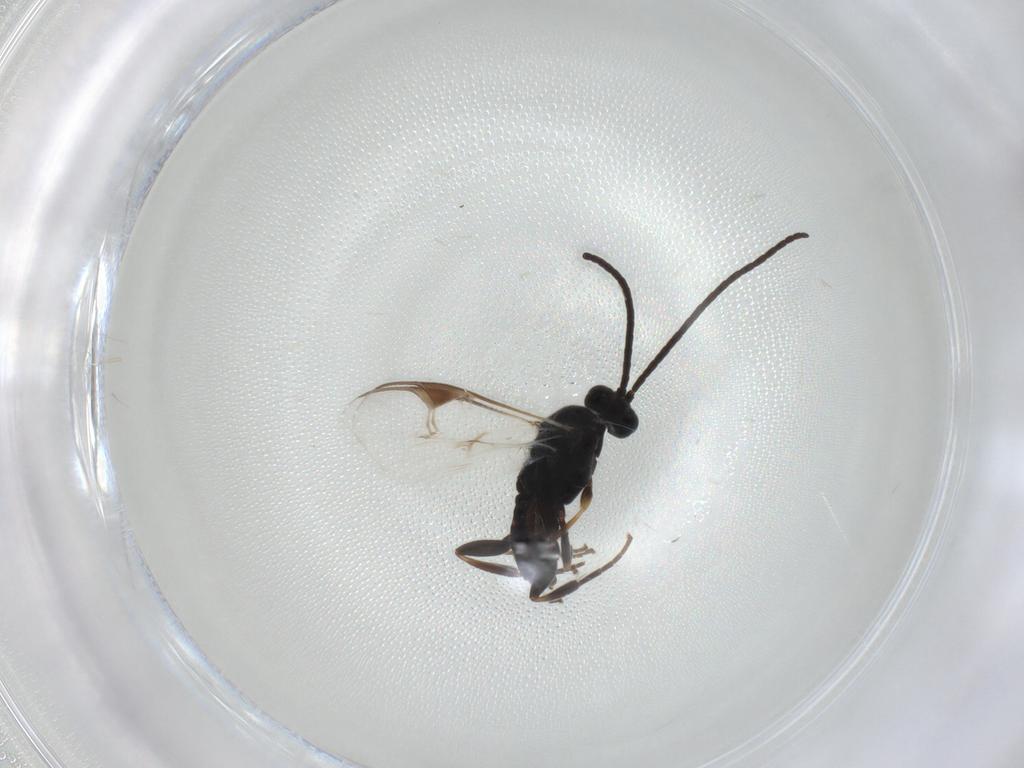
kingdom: Animalia
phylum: Arthropoda
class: Insecta
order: Hymenoptera
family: Braconidae
